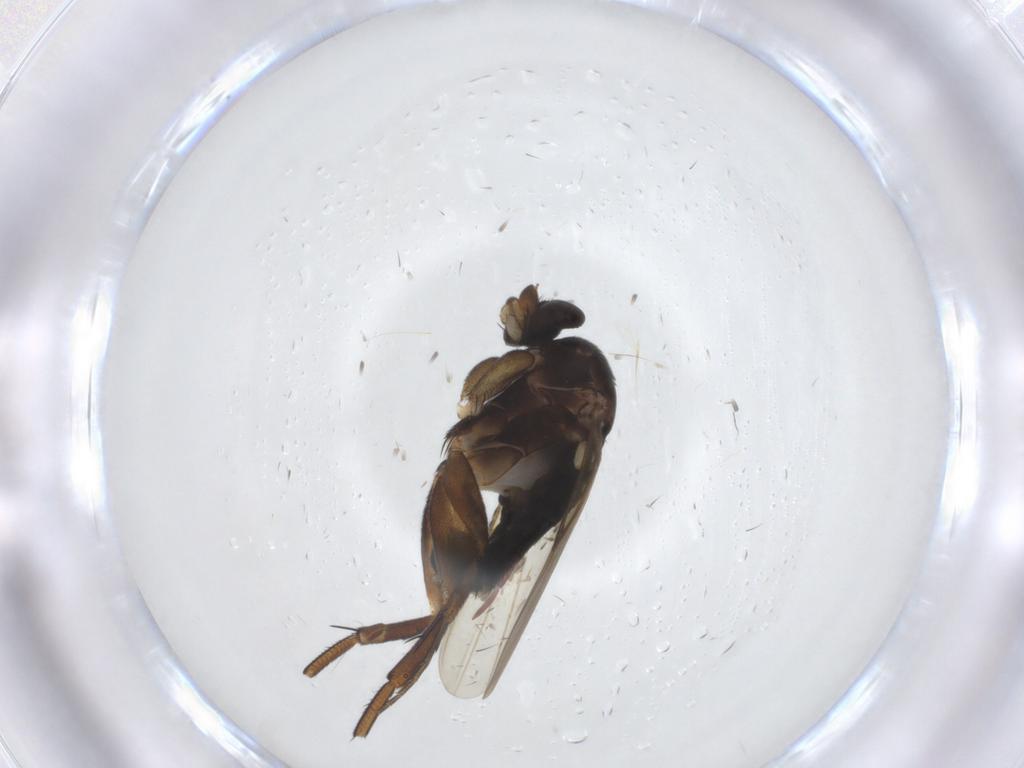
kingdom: Animalia
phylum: Arthropoda
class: Insecta
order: Diptera
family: Phoridae
